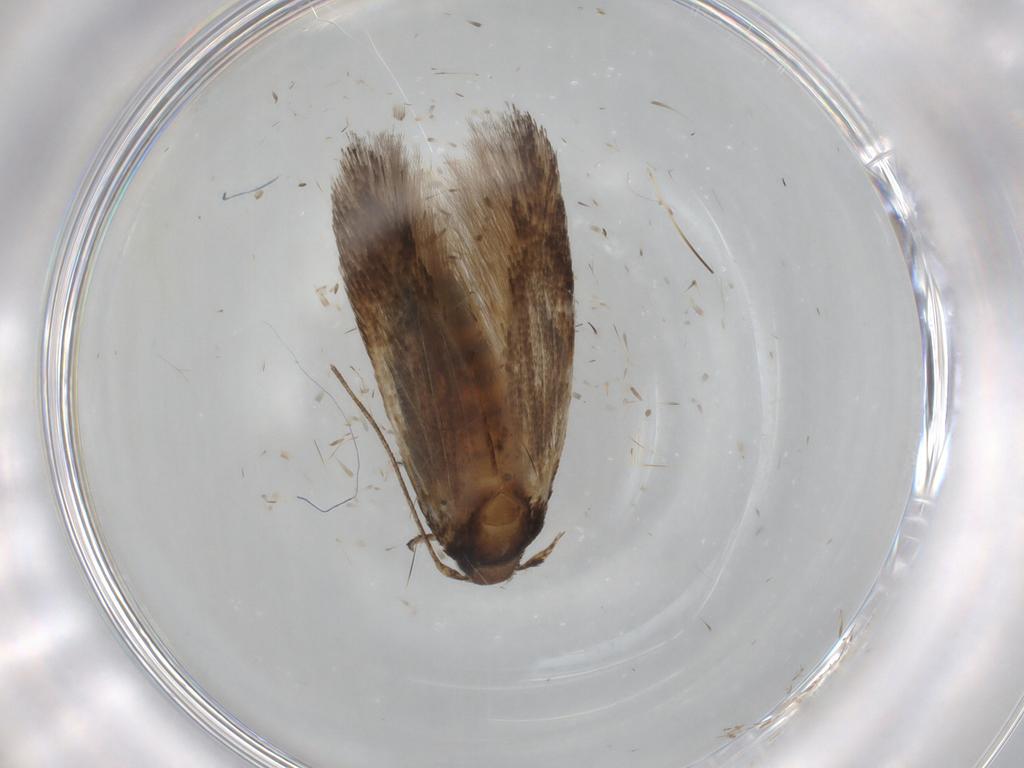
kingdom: Animalia
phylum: Arthropoda
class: Insecta
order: Lepidoptera
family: Cosmopterigidae
